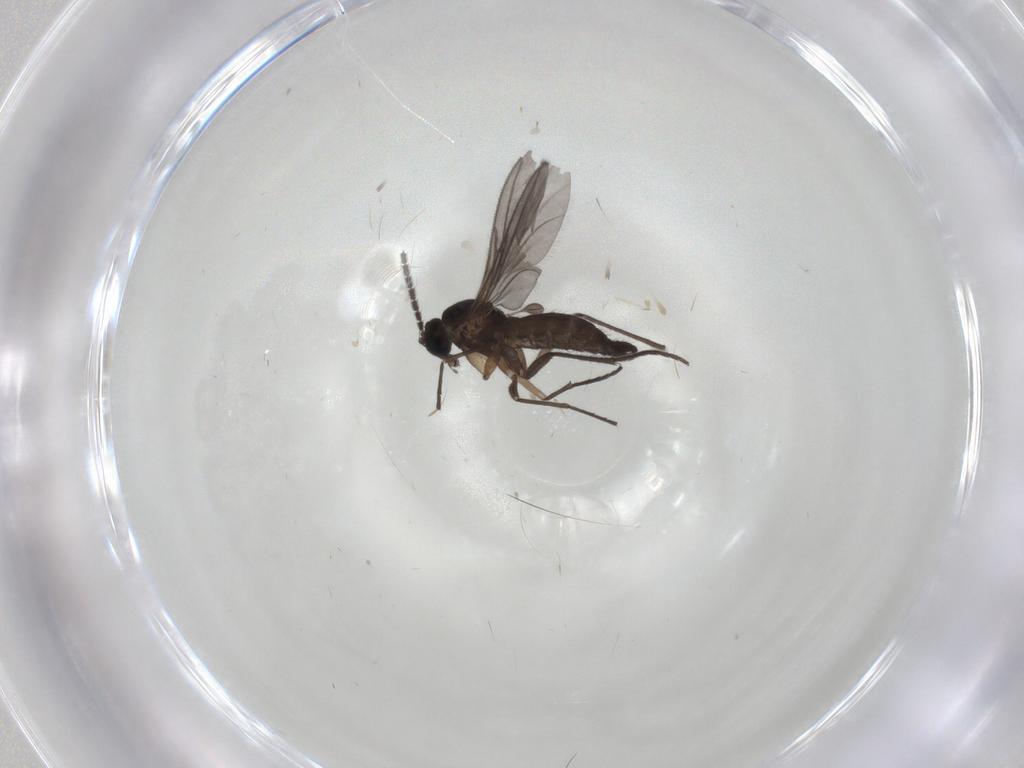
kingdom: Animalia
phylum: Arthropoda
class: Insecta
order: Diptera
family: Sciaridae
